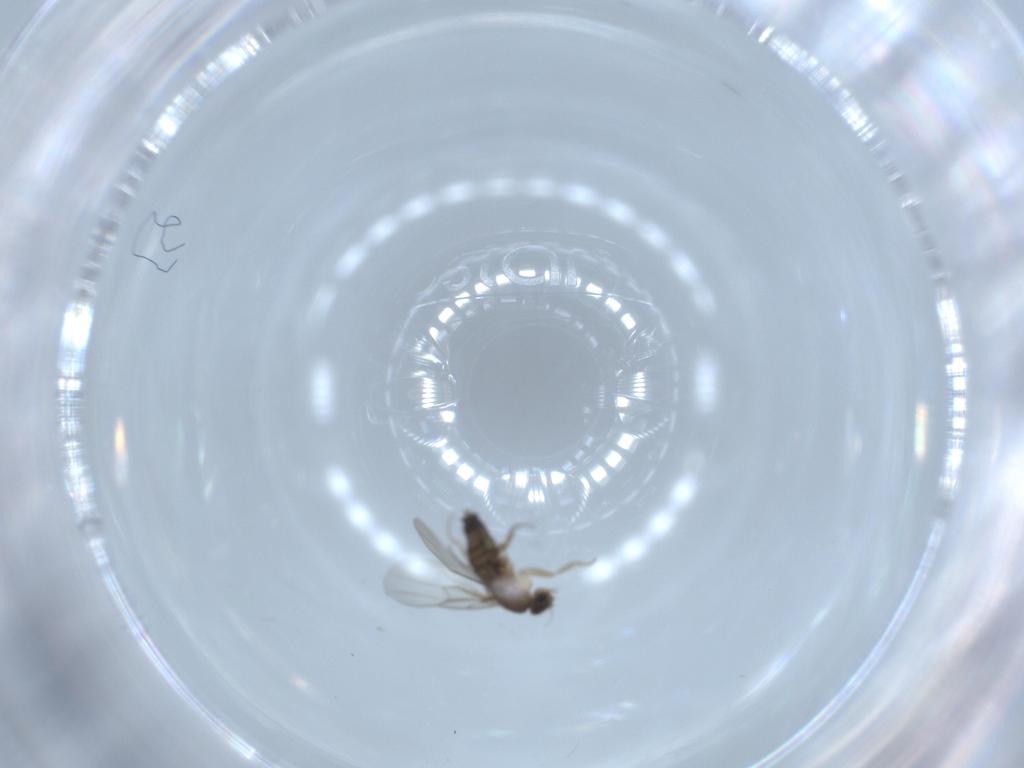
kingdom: Animalia
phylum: Arthropoda
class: Insecta
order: Diptera
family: Phoridae
